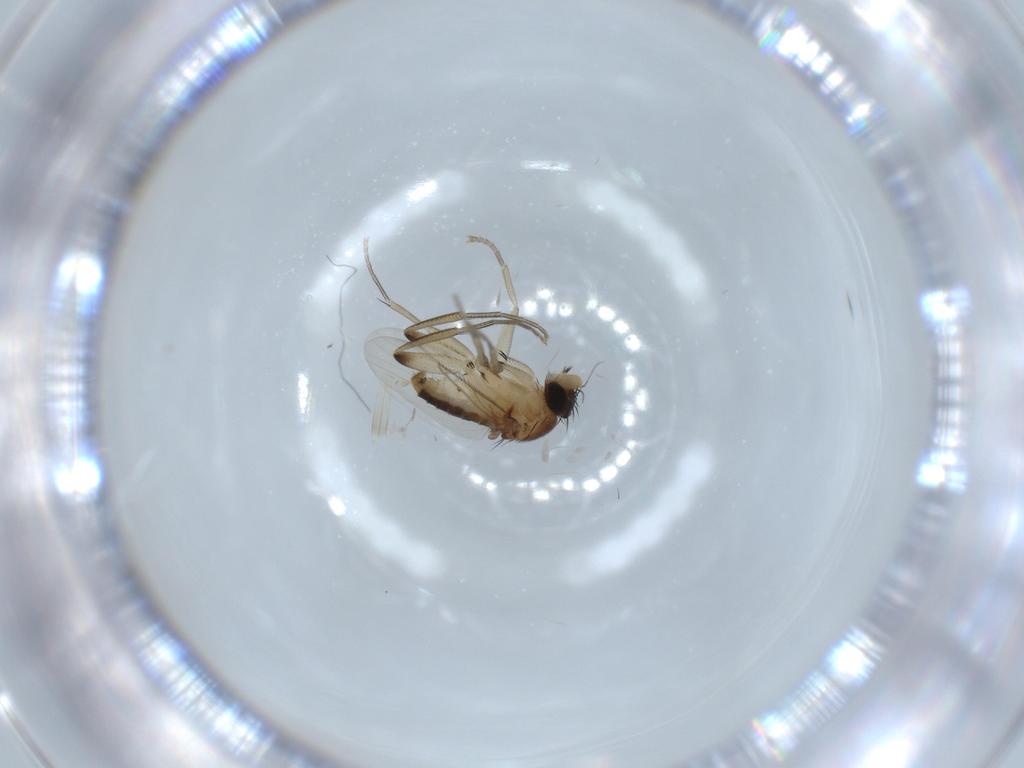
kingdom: Animalia
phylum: Arthropoda
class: Insecta
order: Diptera
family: Phoridae
